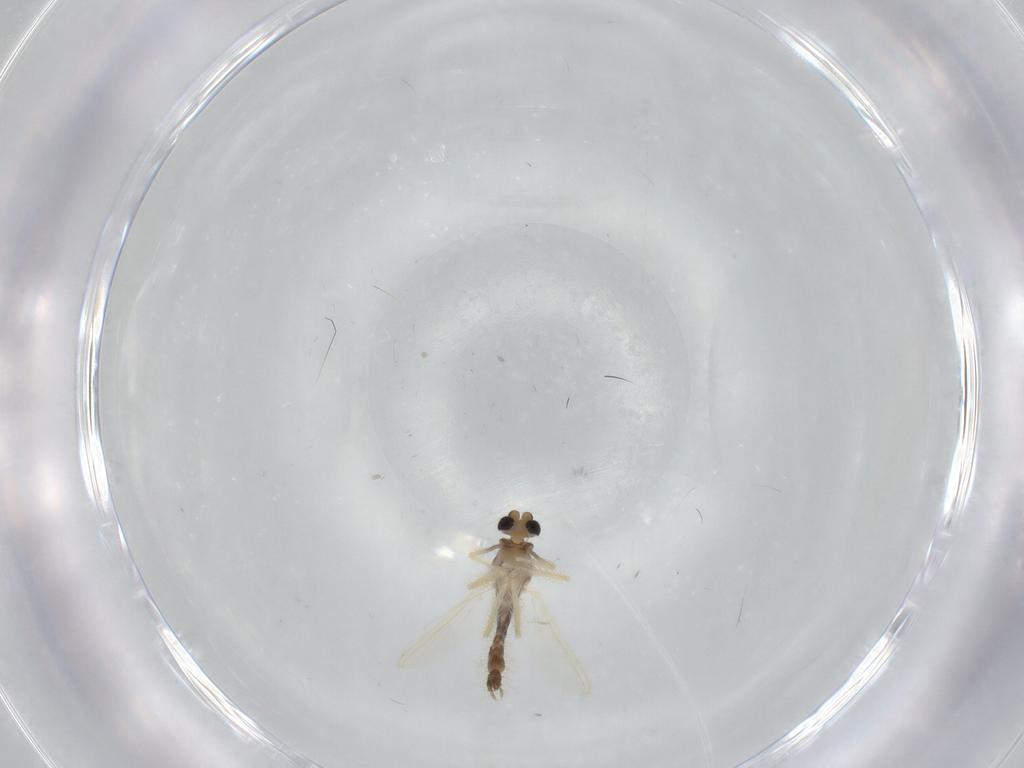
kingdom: Animalia
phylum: Arthropoda
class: Insecta
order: Diptera
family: Chironomidae
